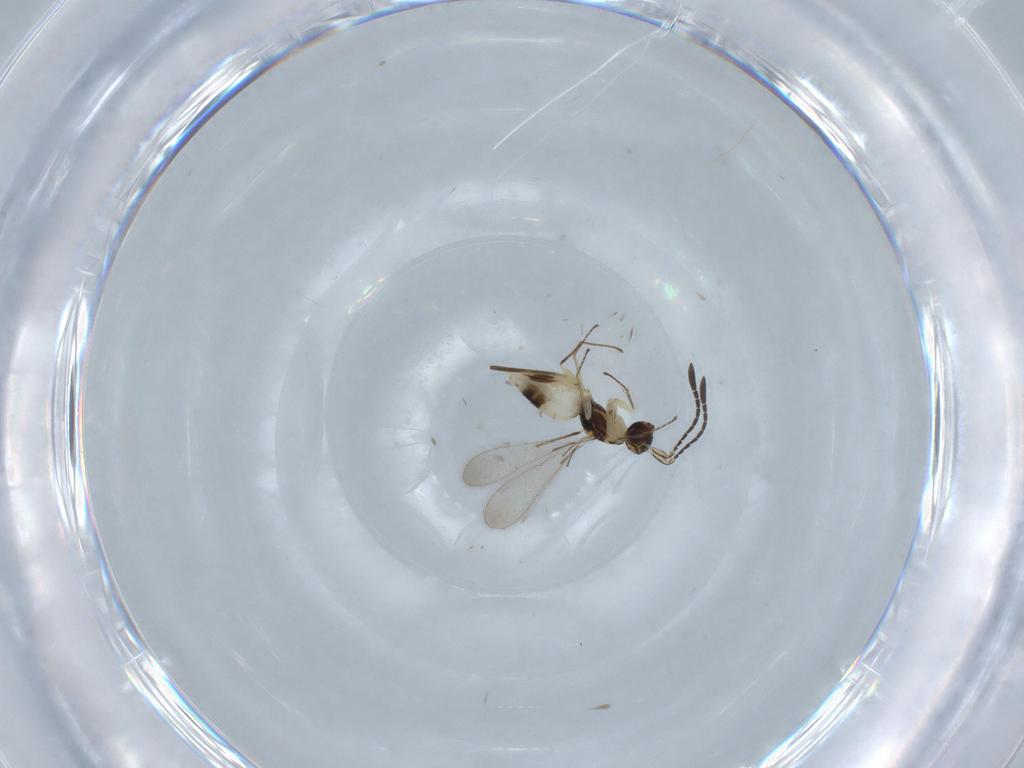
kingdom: Animalia
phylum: Arthropoda
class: Insecta
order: Hymenoptera
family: Mymaridae
